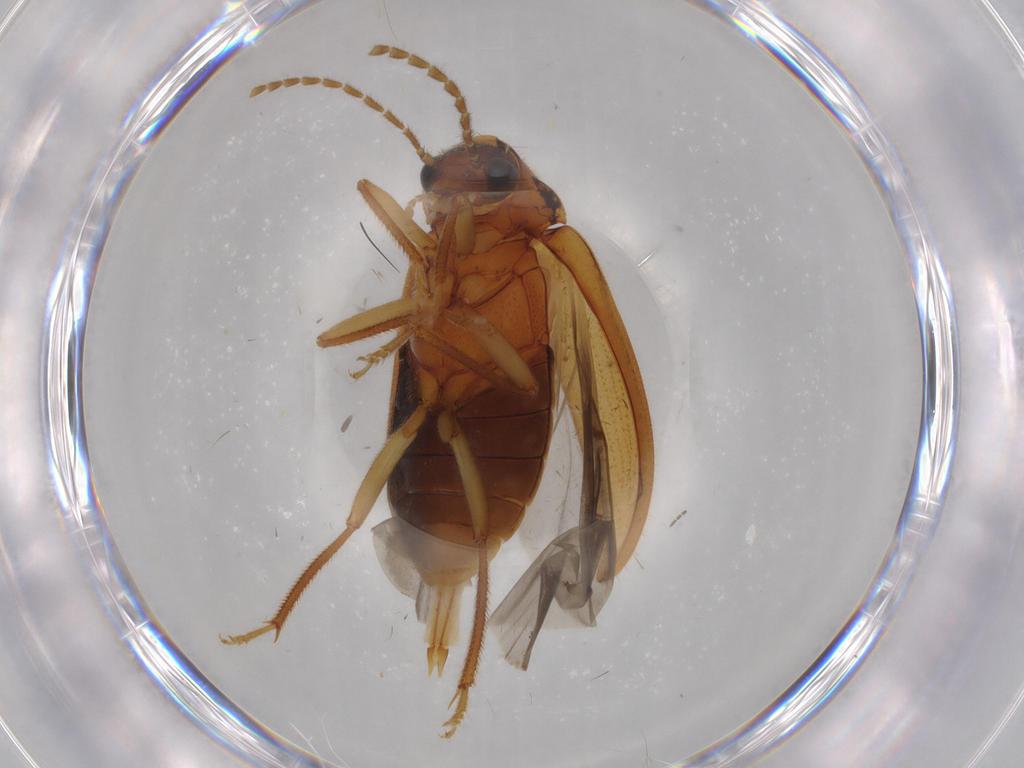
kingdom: Animalia
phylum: Arthropoda
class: Insecta
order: Coleoptera
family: Ptilodactylidae
